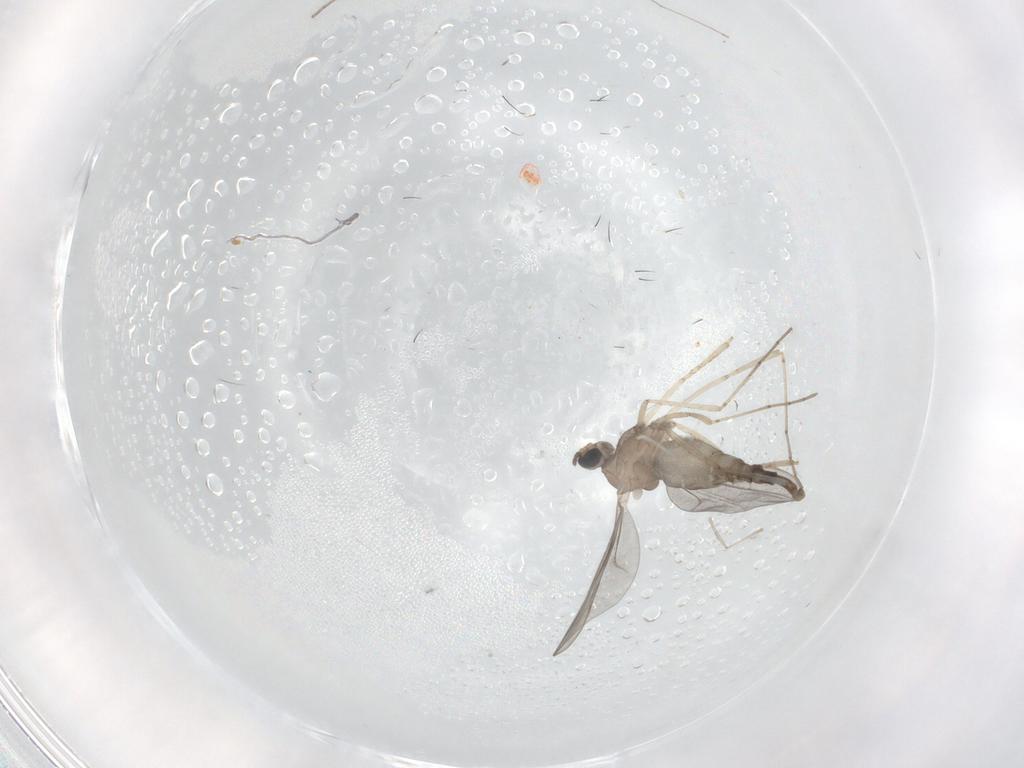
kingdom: Animalia
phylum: Arthropoda
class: Insecta
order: Diptera
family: Cecidomyiidae
